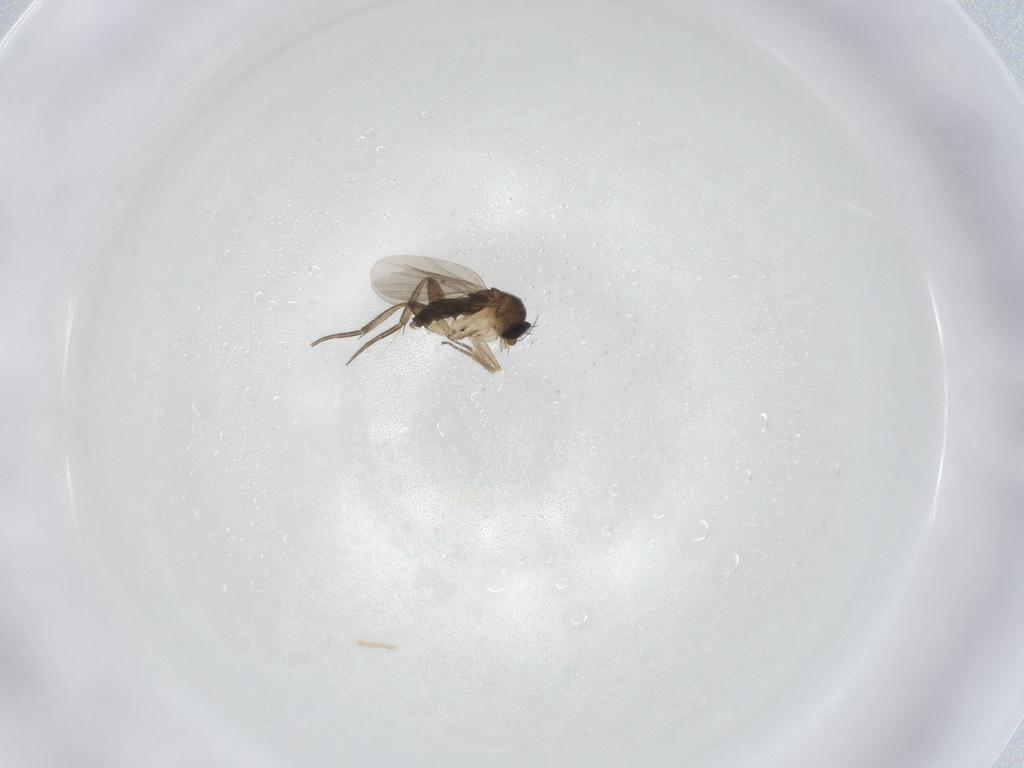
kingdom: Animalia
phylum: Arthropoda
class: Insecta
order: Diptera
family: Phoridae
